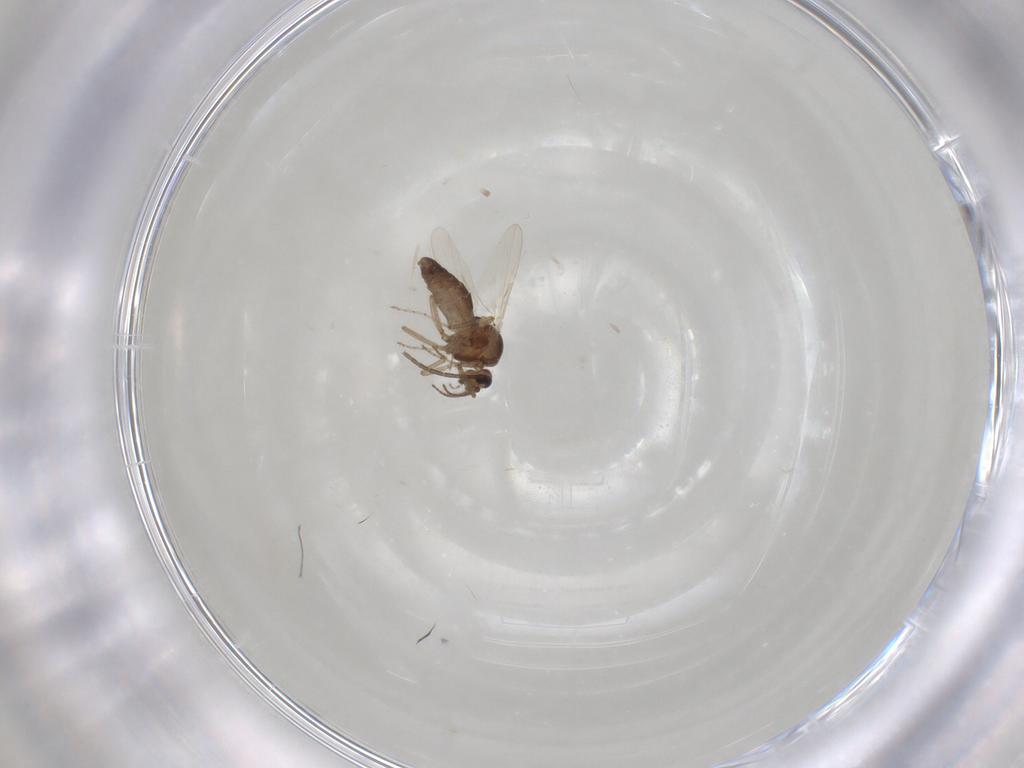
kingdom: Animalia
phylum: Arthropoda
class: Insecta
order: Diptera
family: Ceratopogonidae
